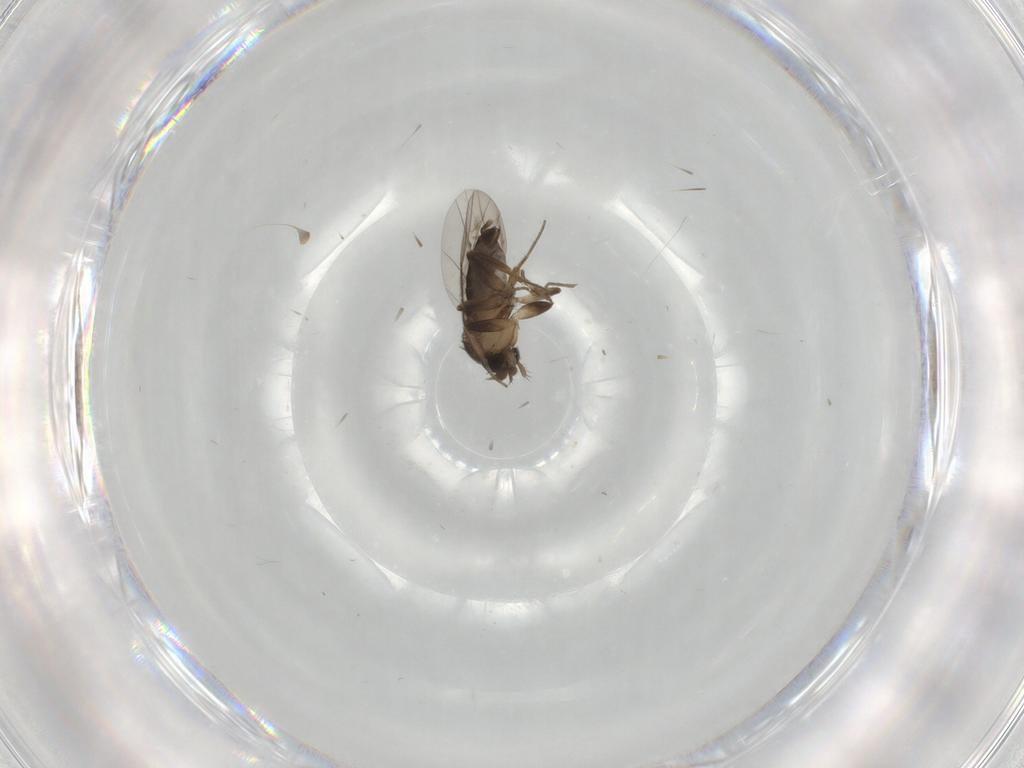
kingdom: Animalia
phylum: Arthropoda
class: Insecta
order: Diptera
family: Phoridae
